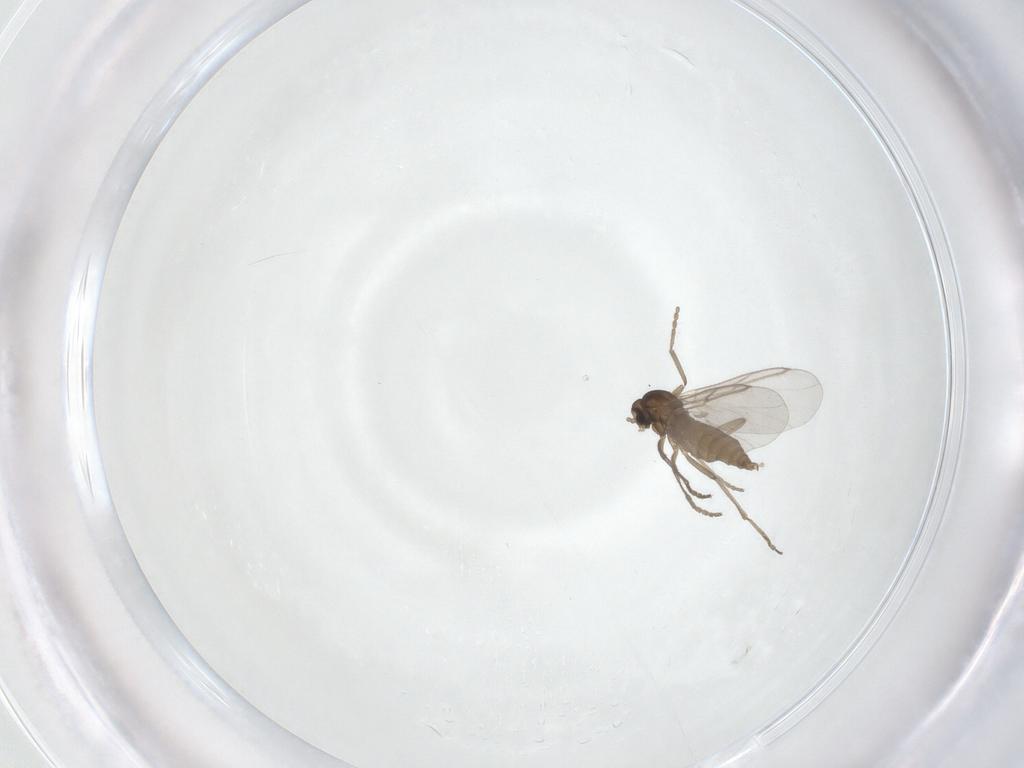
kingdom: Animalia
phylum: Arthropoda
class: Insecta
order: Diptera
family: Cecidomyiidae
